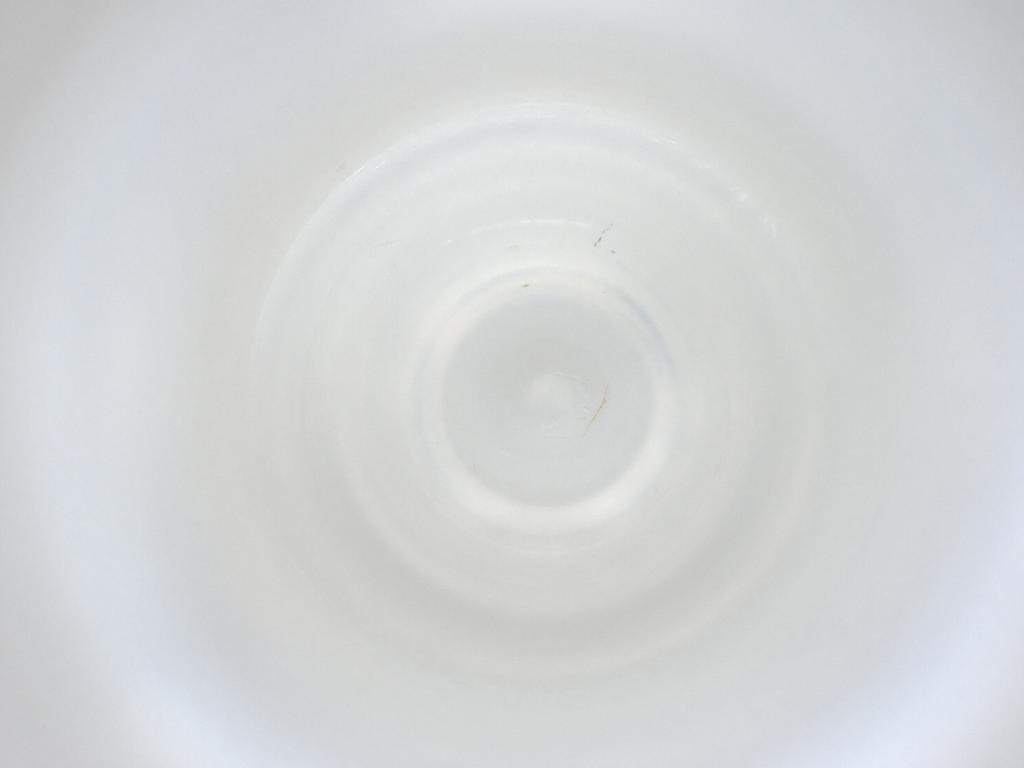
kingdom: Animalia
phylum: Arthropoda
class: Insecta
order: Diptera
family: Cecidomyiidae
